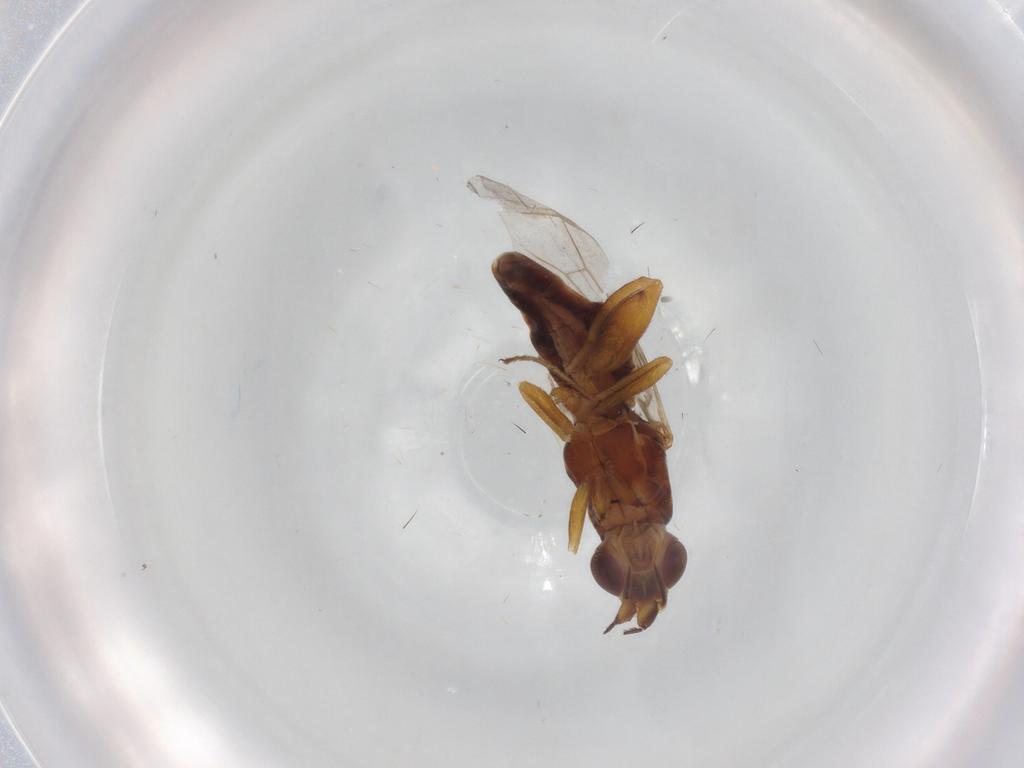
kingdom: Animalia
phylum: Arthropoda
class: Insecta
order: Diptera
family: Chloropidae
